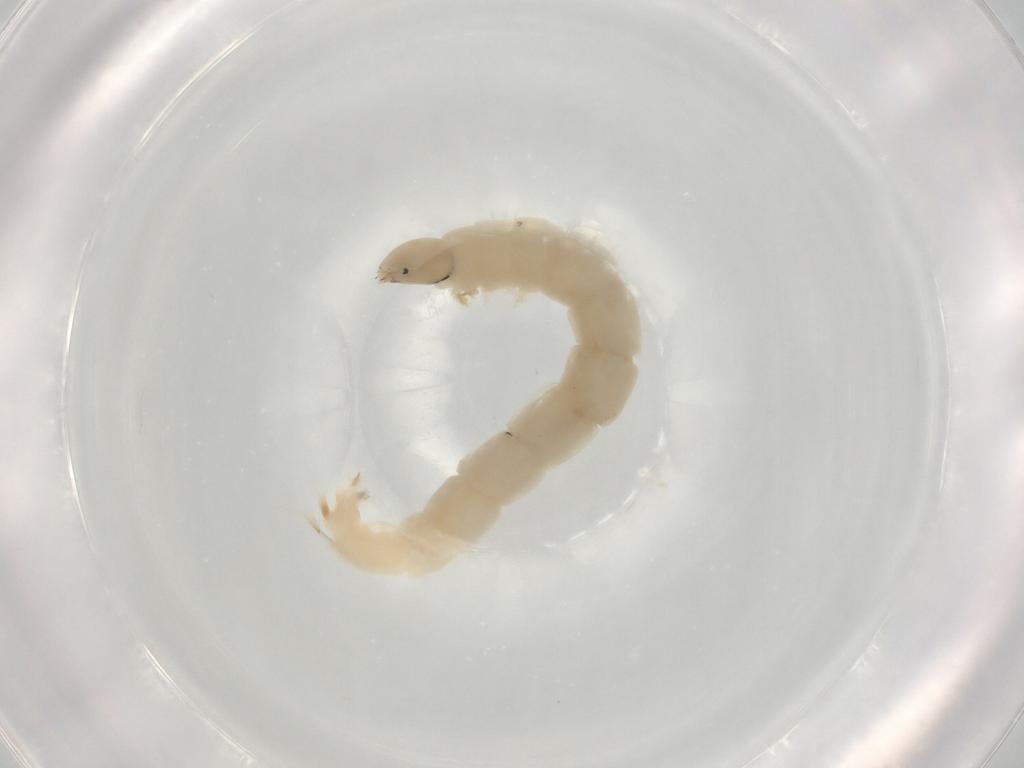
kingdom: Animalia
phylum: Arthropoda
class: Insecta
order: Diptera
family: Chironomidae
